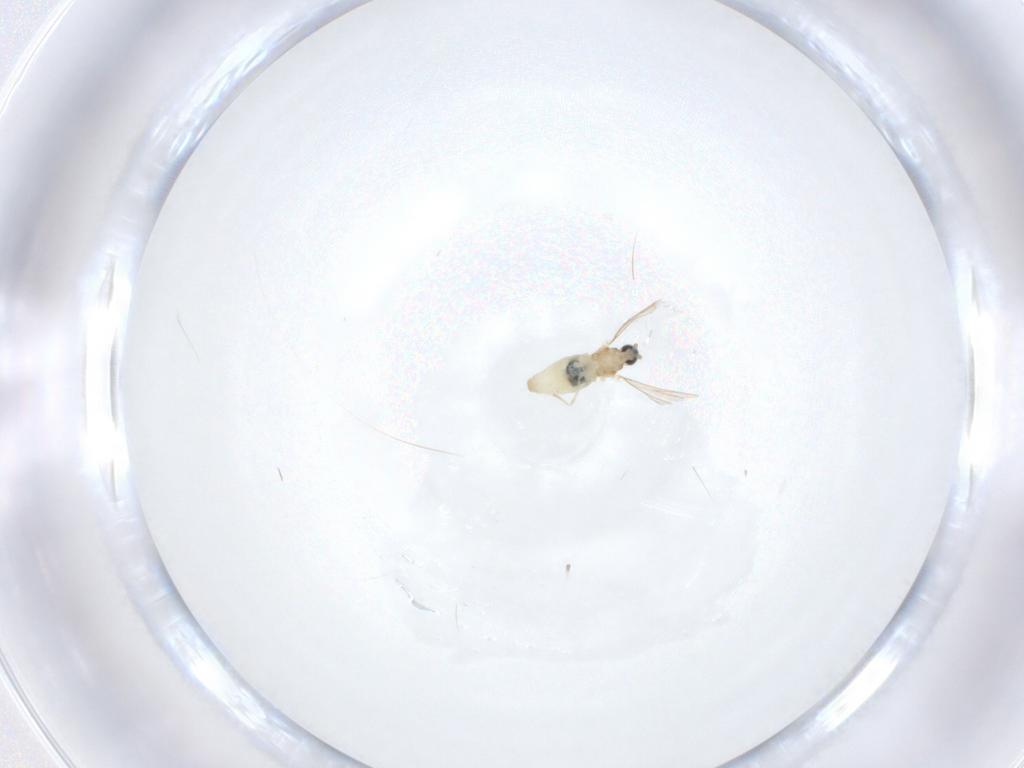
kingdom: Animalia
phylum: Arthropoda
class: Insecta
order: Diptera
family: Cecidomyiidae
